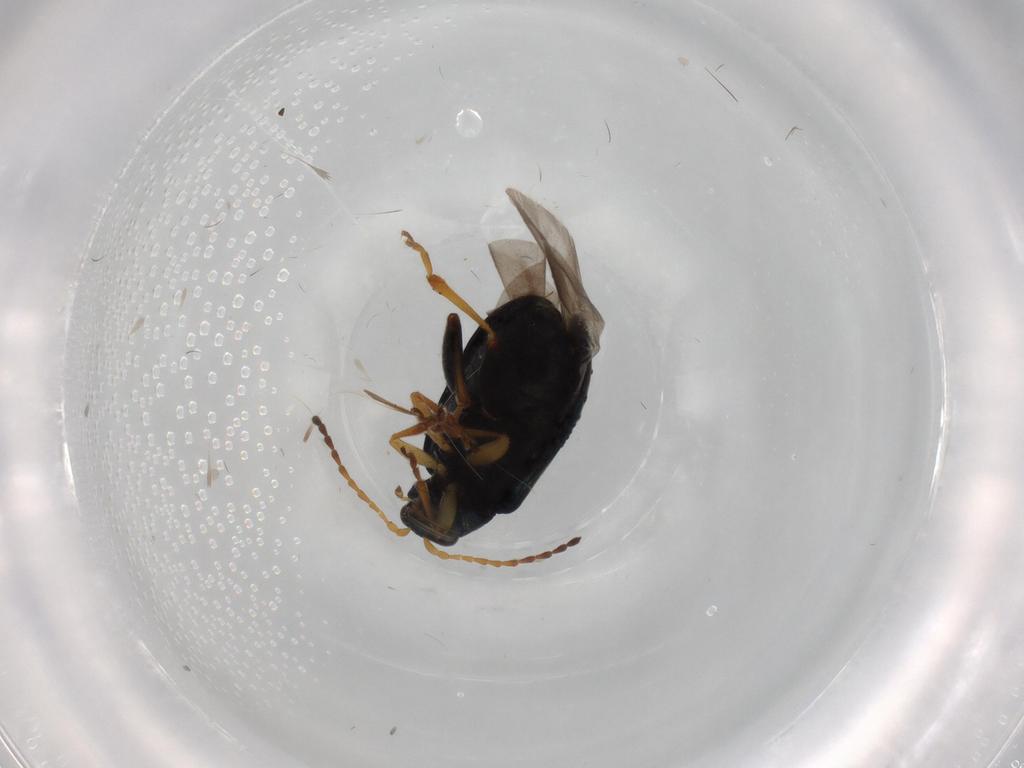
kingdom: Animalia
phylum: Arthropoda
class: Insecta
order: Coleoptera
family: Chrysomelidae
